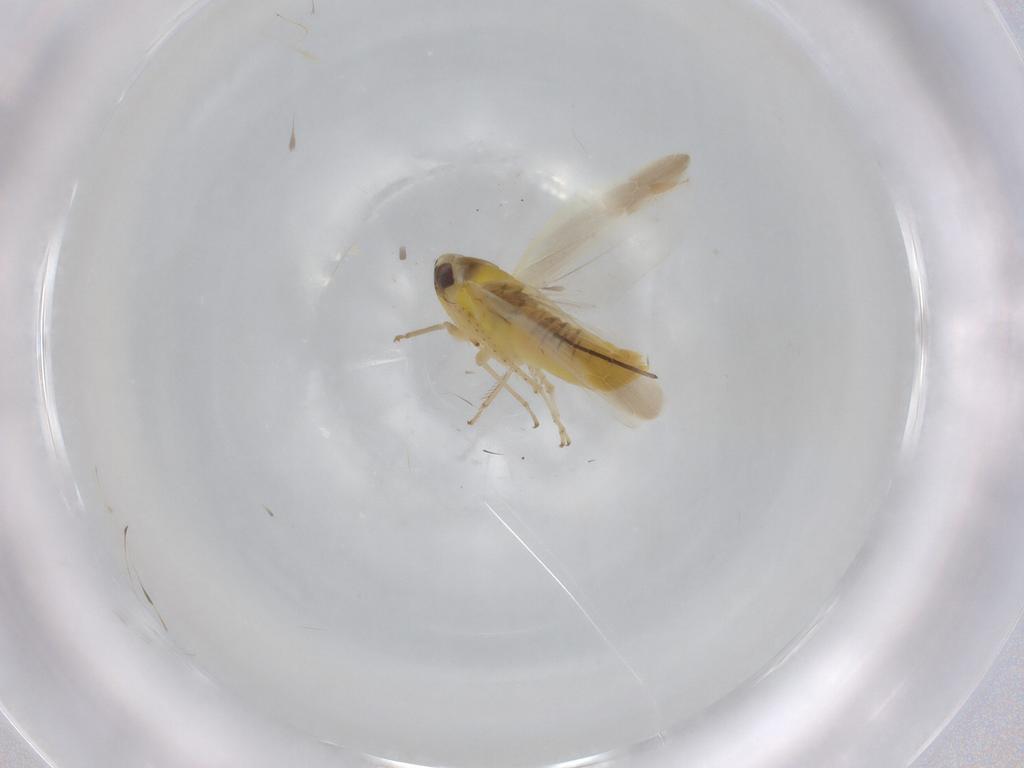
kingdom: Animalia
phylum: Arthropoda
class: Insecta
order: Hemiptera
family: Cicadellidae
